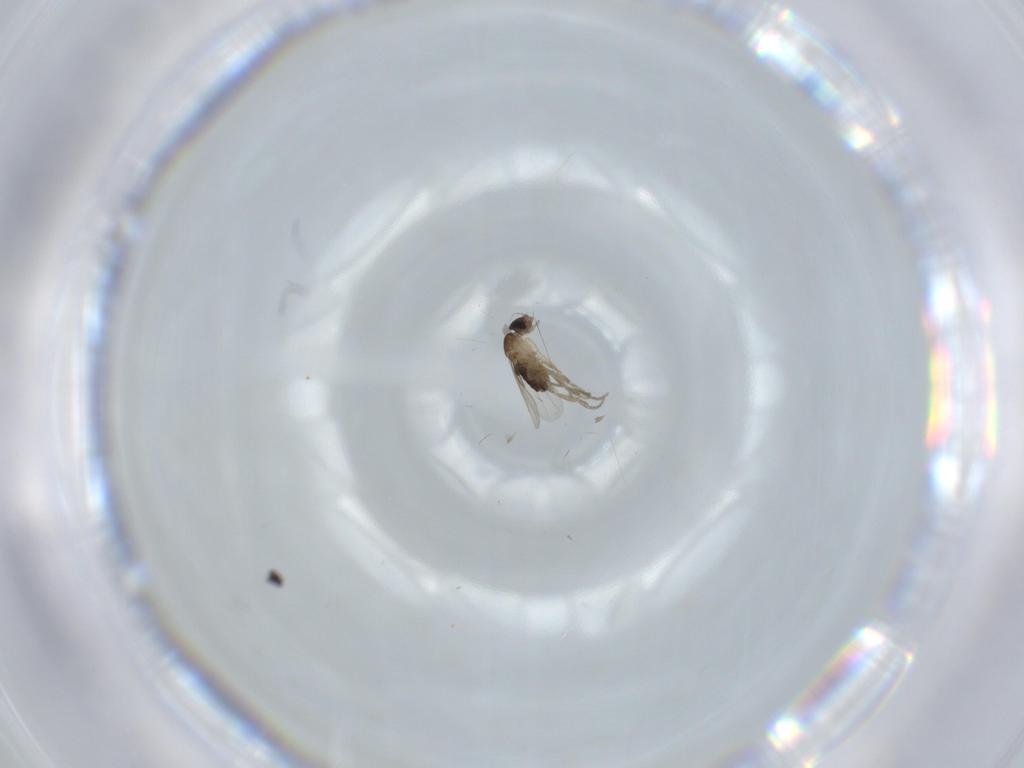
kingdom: Animalia
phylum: Arthropoda
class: Insecta
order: Diptera
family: Phoridae
